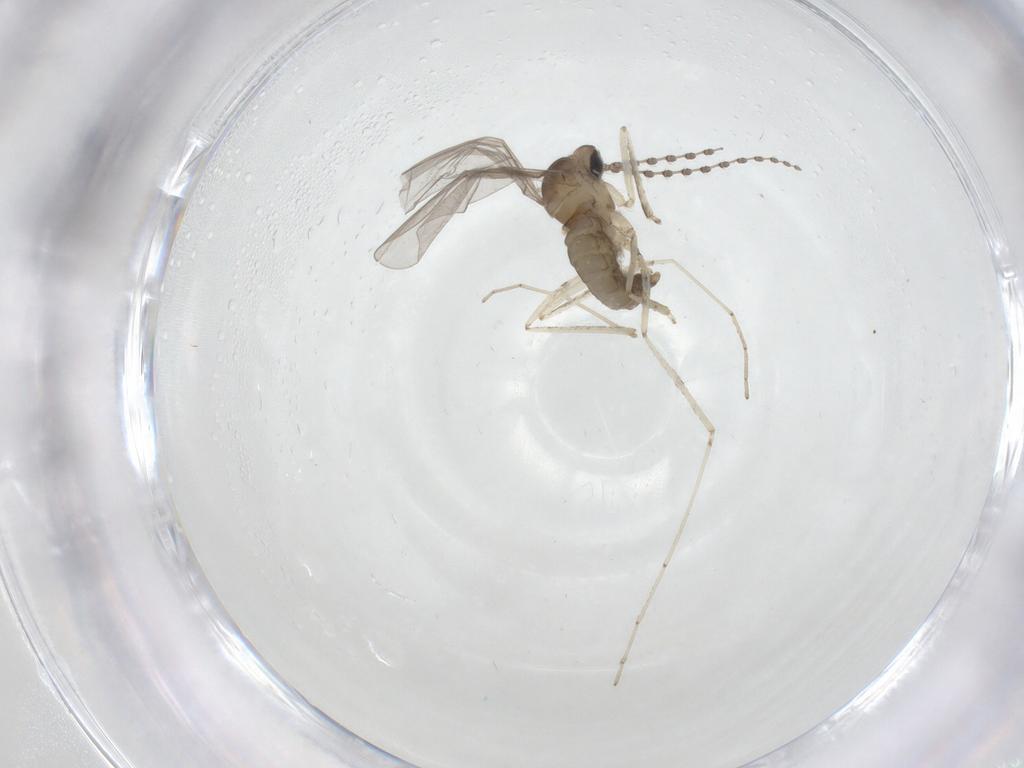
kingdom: Animalia
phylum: Arthropoda
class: Insecta
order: Diptera
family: Cecidomyiidae
